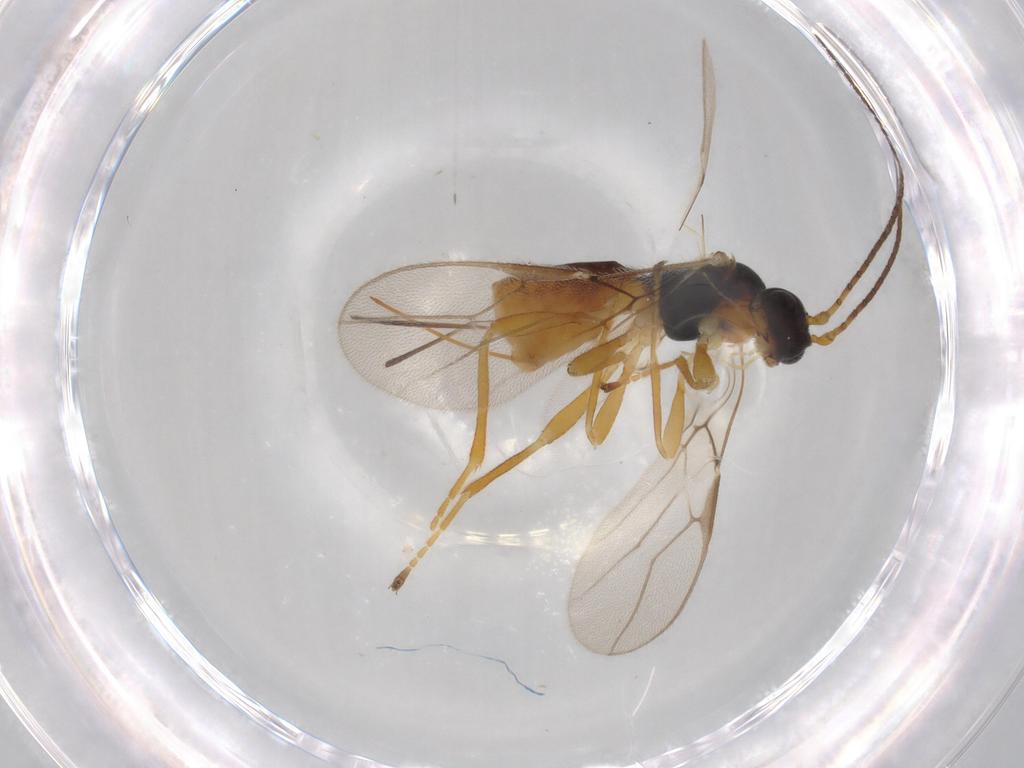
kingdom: Animalia
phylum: Arthropoda
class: Insecta
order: Hymenoptera
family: Braconidae
